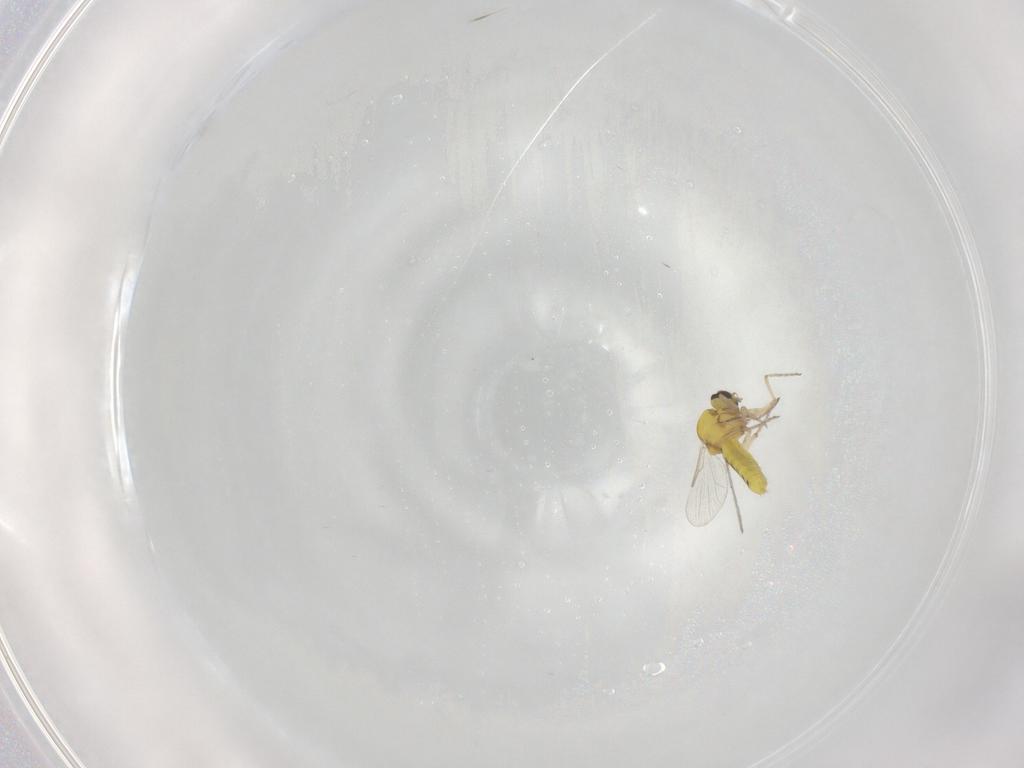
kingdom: Animalia
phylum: Arthropoda
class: Insecta
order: Diptera
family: Ceratopogonidae
